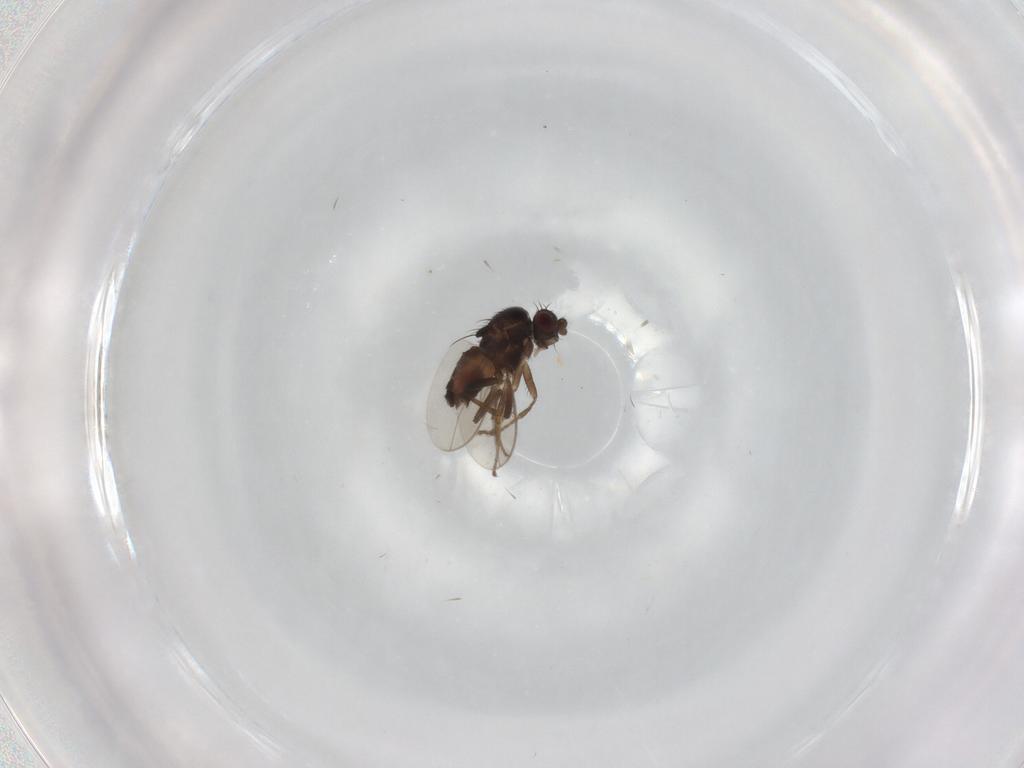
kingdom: Animalia
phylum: Arthropoda
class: Insecta
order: Diptera
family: Sphaeroceridae
